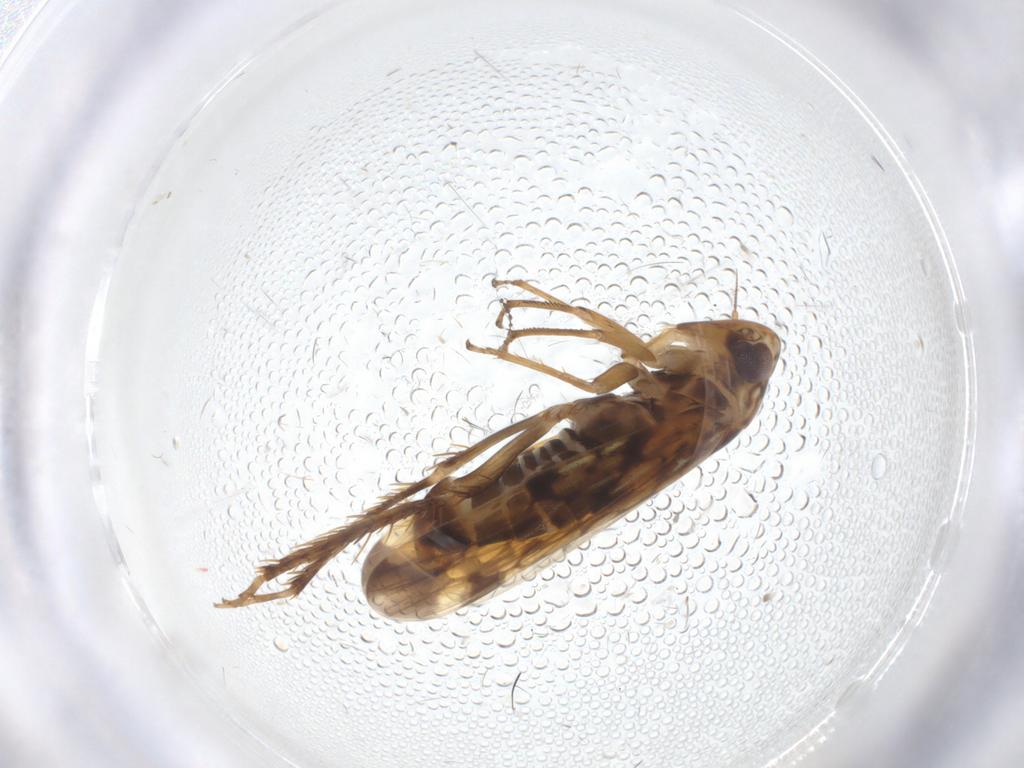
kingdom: Animalia
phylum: Arthropoda
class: Insecta
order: Hemiptera
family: Cicadellidae
